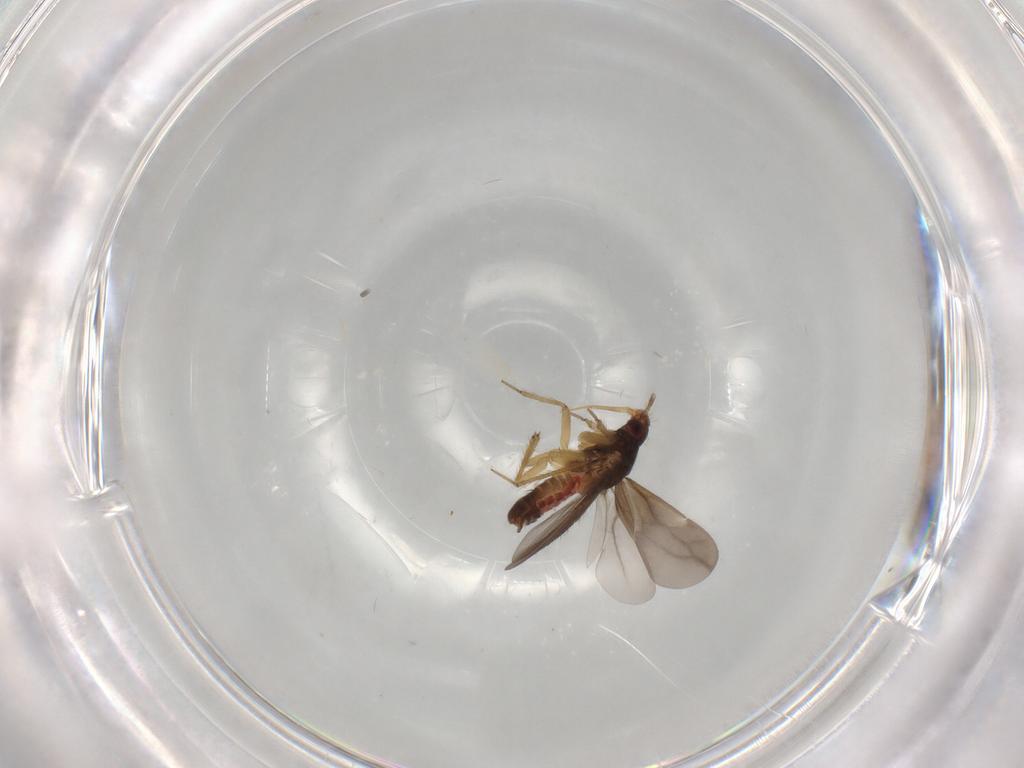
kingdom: Animalia
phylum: Arthropoda
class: Insecta
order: Hemiptera
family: Ceratocombidae
